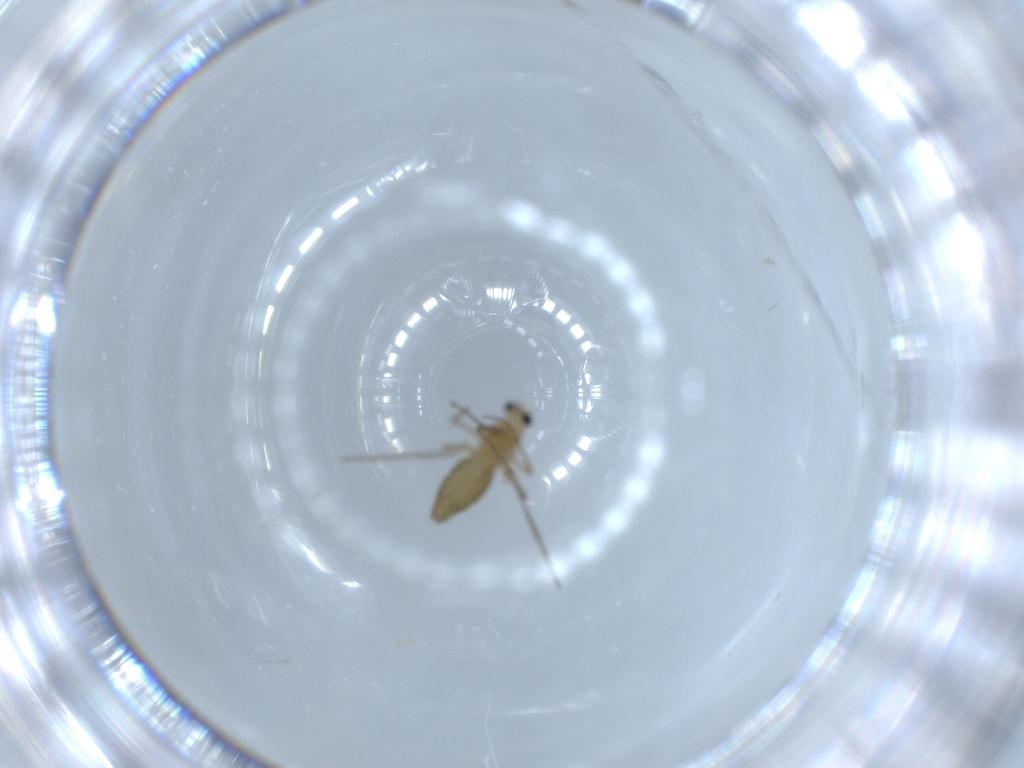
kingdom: Animalia
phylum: Arthropoda
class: Insecta
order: Diptera
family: Chironomidae
